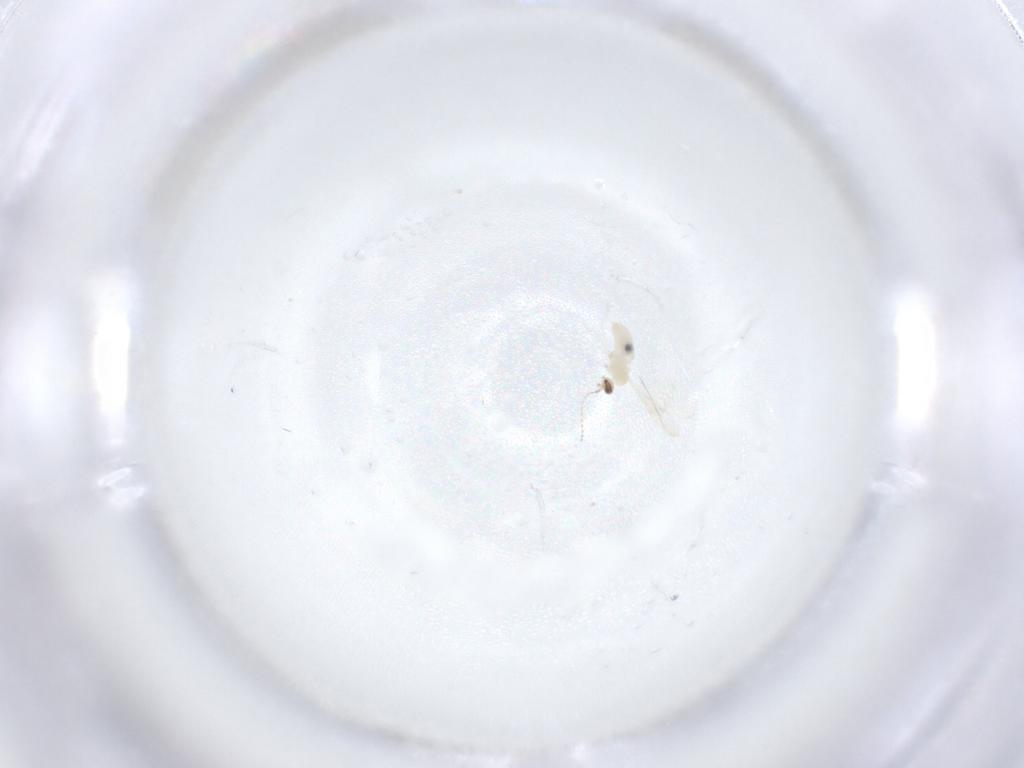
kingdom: Animalia
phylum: Arthropoda
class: Insecta
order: Diptera
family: Cecidomyiidae
